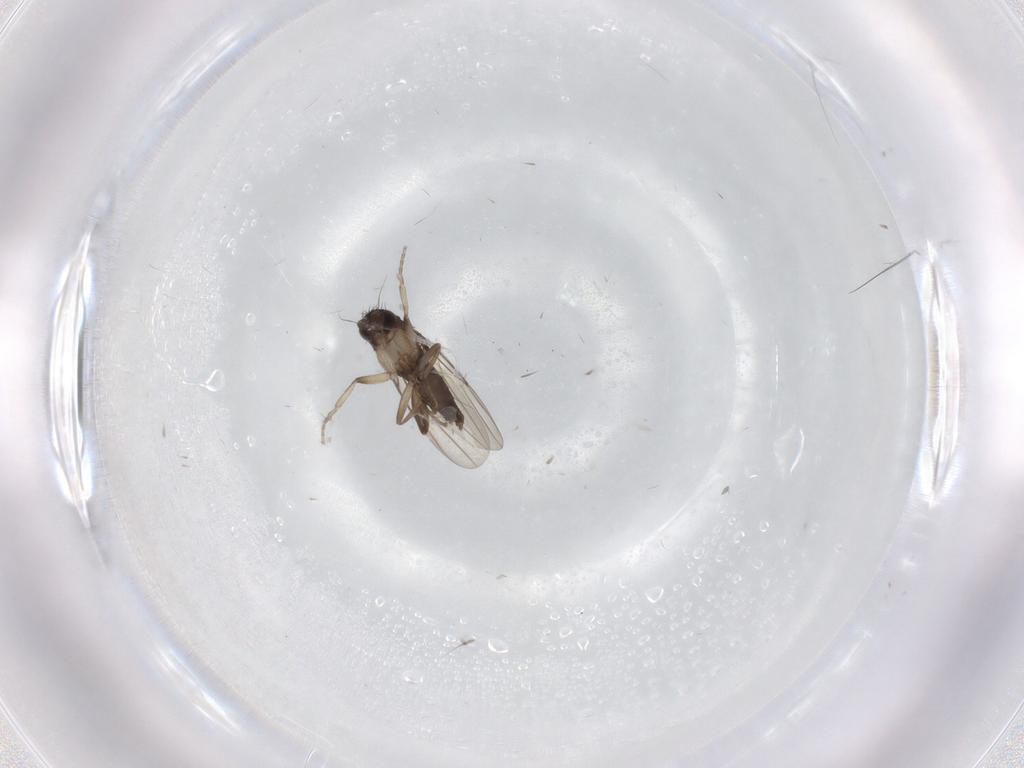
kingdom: Animalia
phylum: Arthropoda
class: Insecta
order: Diptera
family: Phoridae
